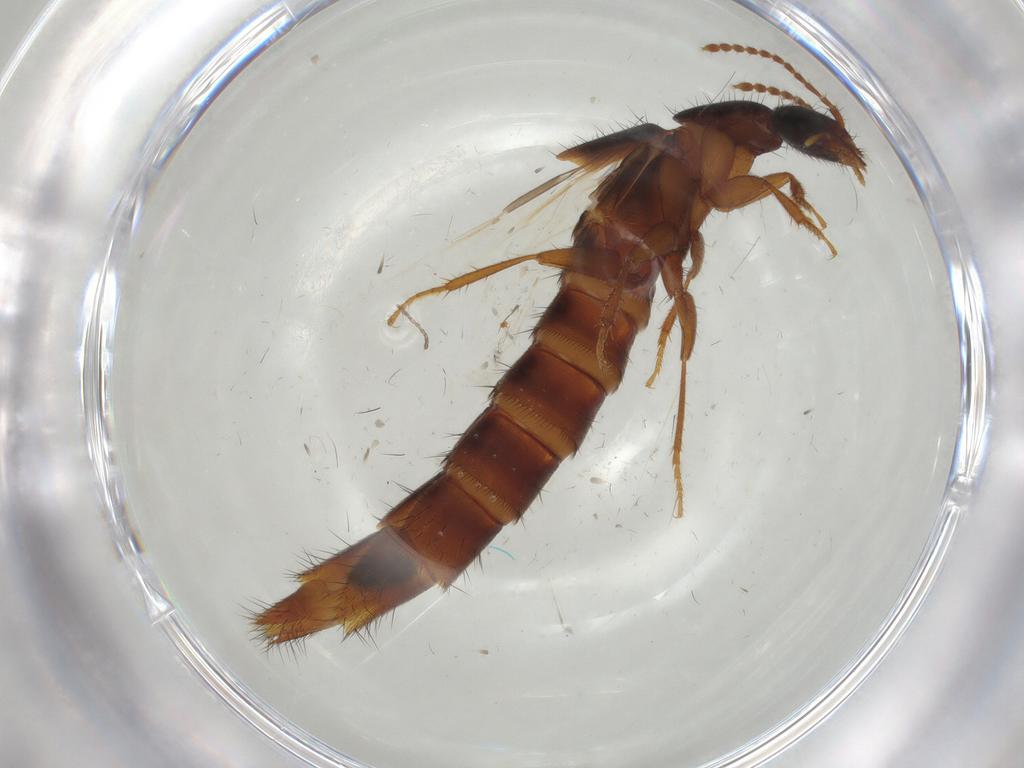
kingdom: Animalia
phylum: Arthropoda
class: Insecta
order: Coleoptera
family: Staphylinidae
